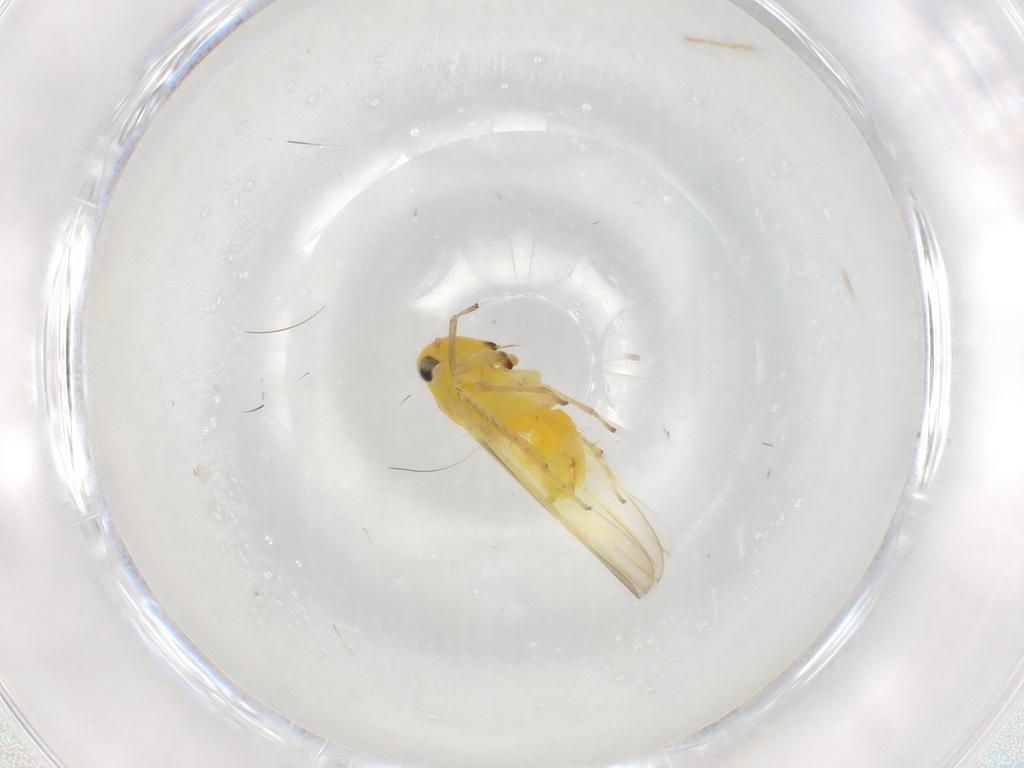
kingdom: Animalia
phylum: Arthropoda
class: Insecta
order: Hemiptera
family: Cicadellidae
